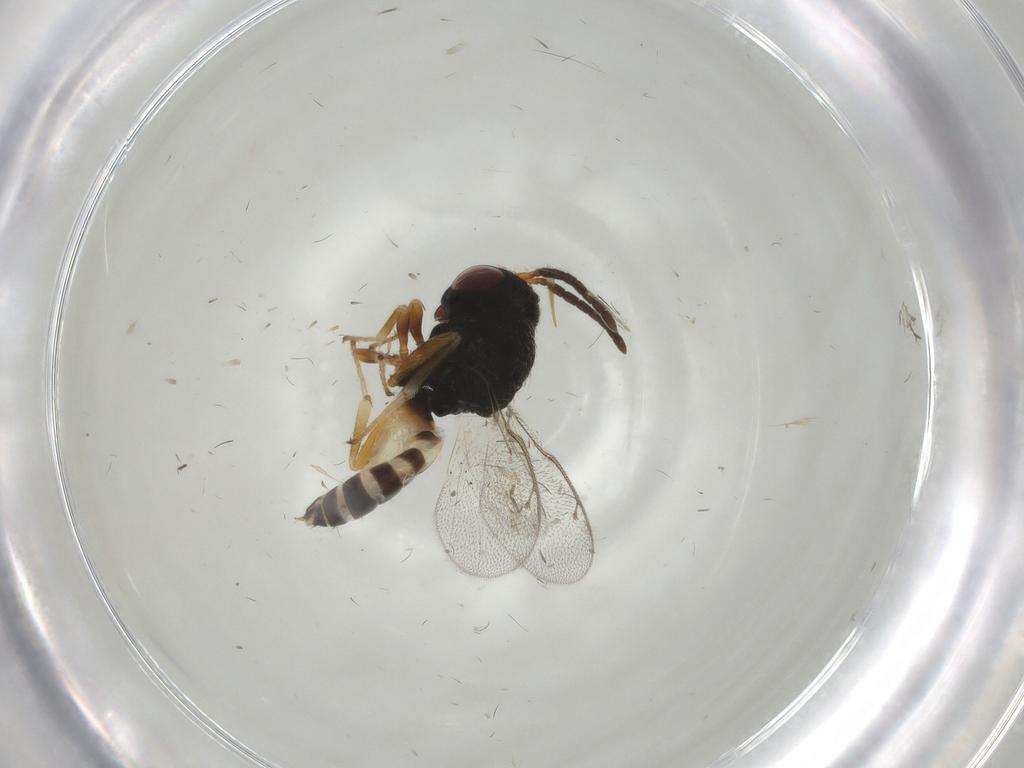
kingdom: Animalia
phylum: Arthropoda
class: Insecta
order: Hymenoptera
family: Pteromalidae
